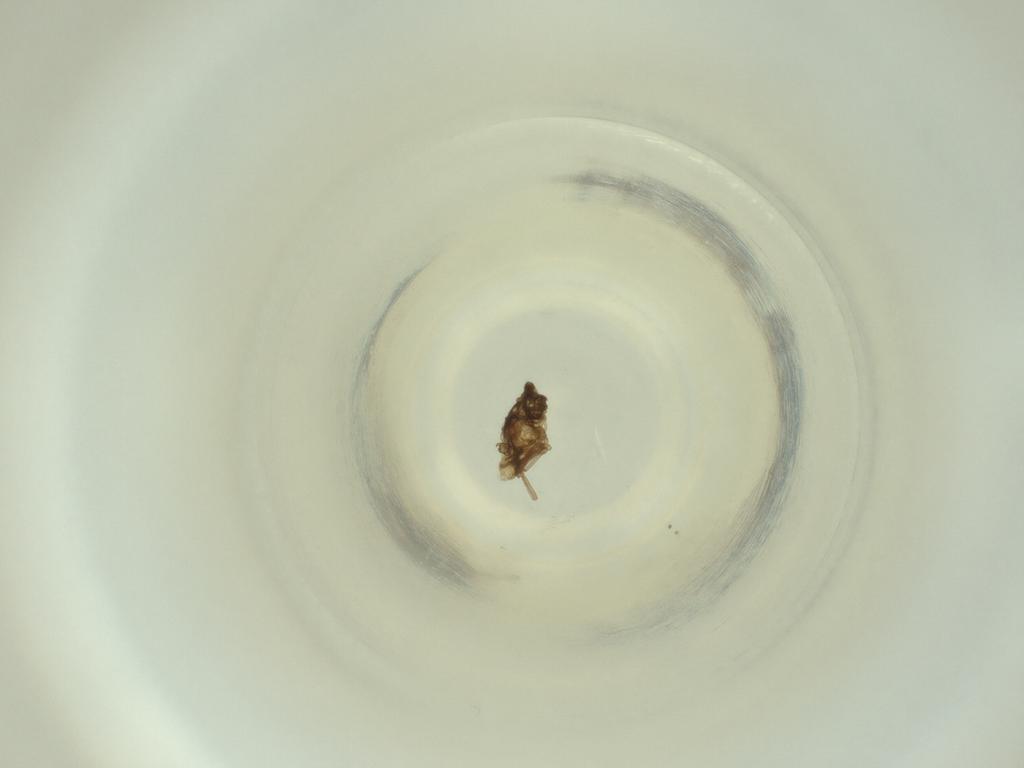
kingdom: Animalia
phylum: Arthropoda
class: Insecta
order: Diptera
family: Cecidomyiidae
